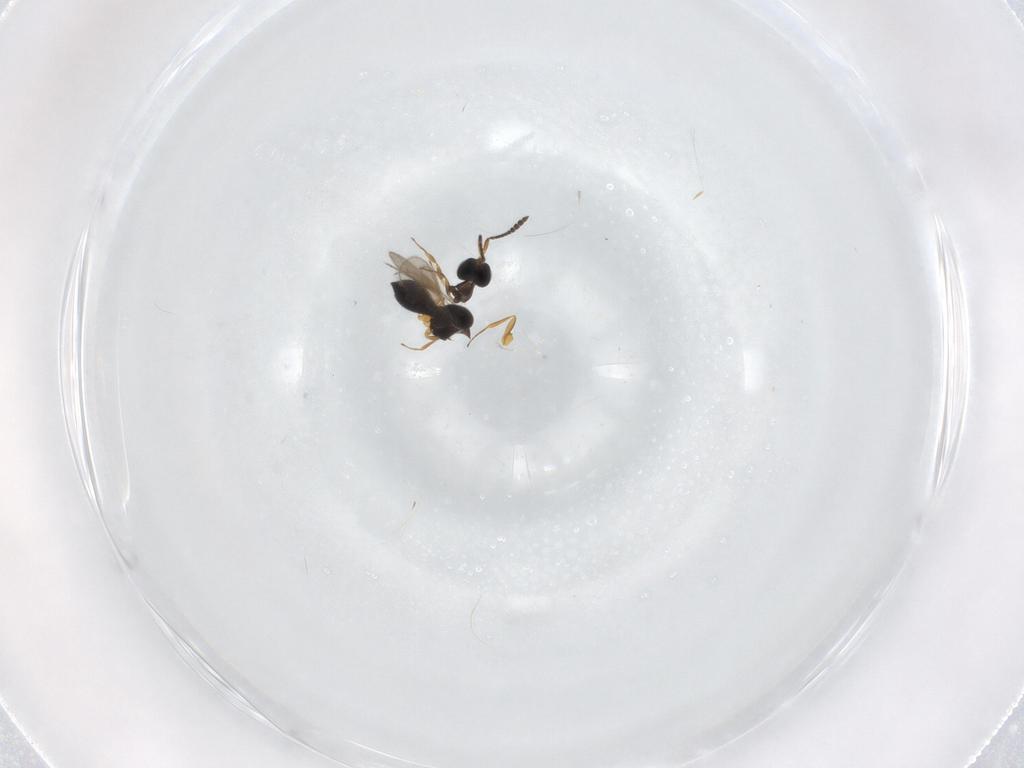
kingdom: Animalia
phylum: Arthropoda
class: Insecta
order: Hymenoptera
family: Scelionidae
